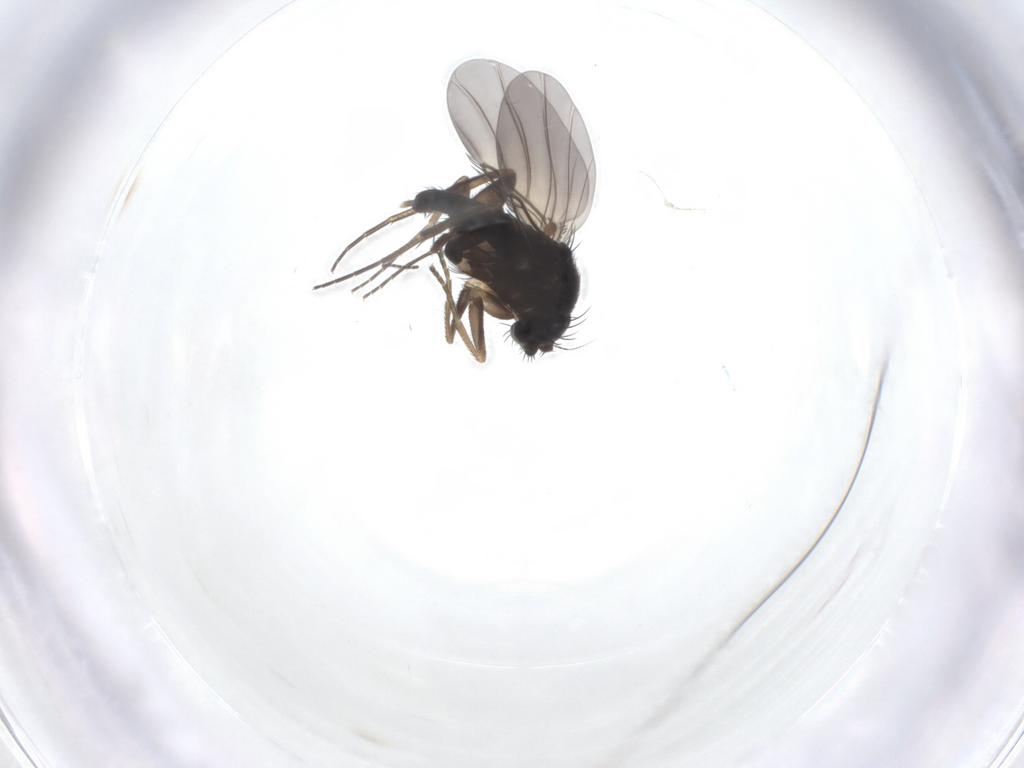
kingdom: Animalia
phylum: Arthropoda
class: Insecta
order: Diptera
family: Phoridae
